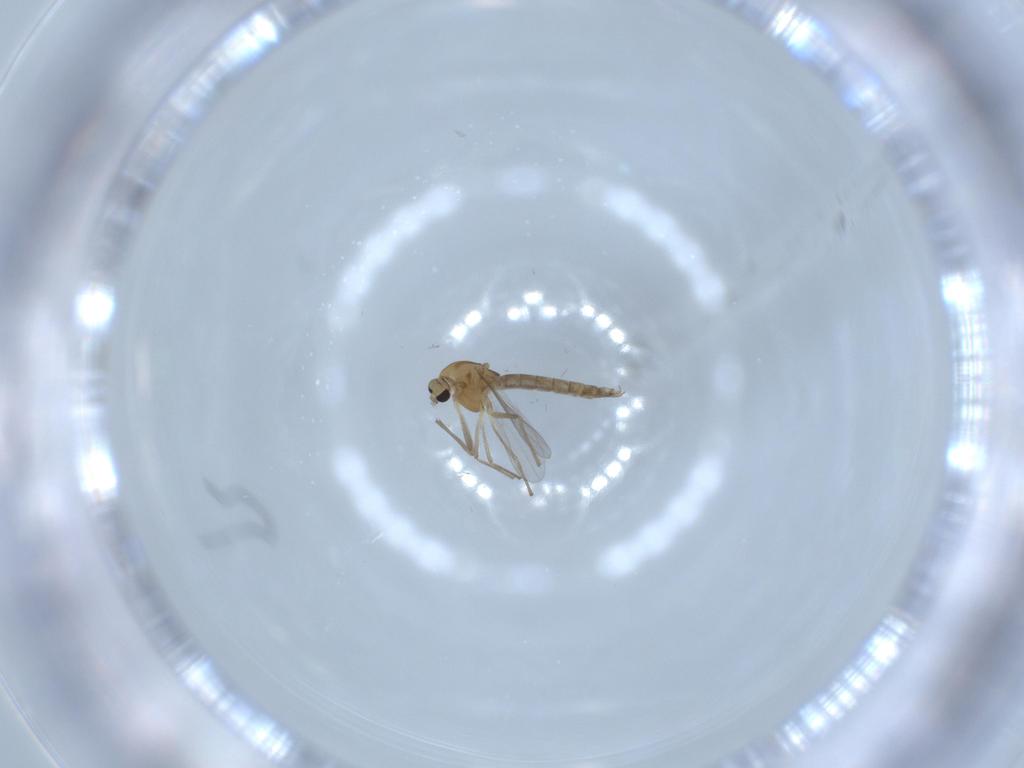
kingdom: Animalia
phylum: Arthropoda
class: Insecta
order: Diptera
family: Chironomidae
